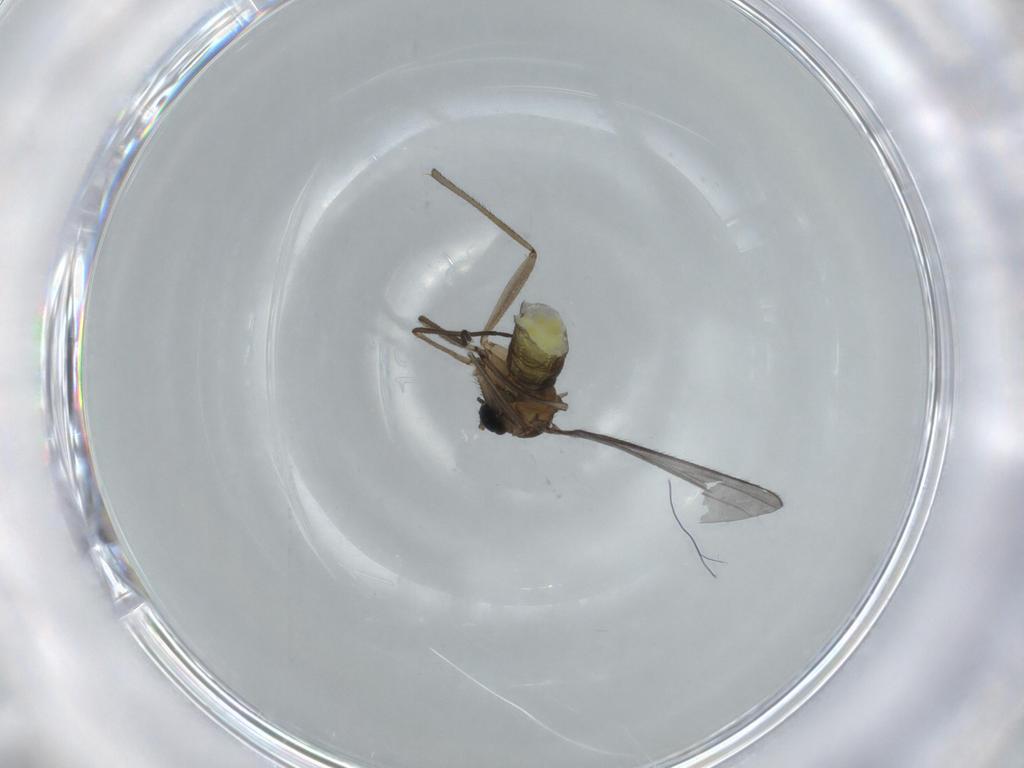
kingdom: Animalia
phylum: Arthropoda
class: Insecta
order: Diptera
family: Sciaridae
